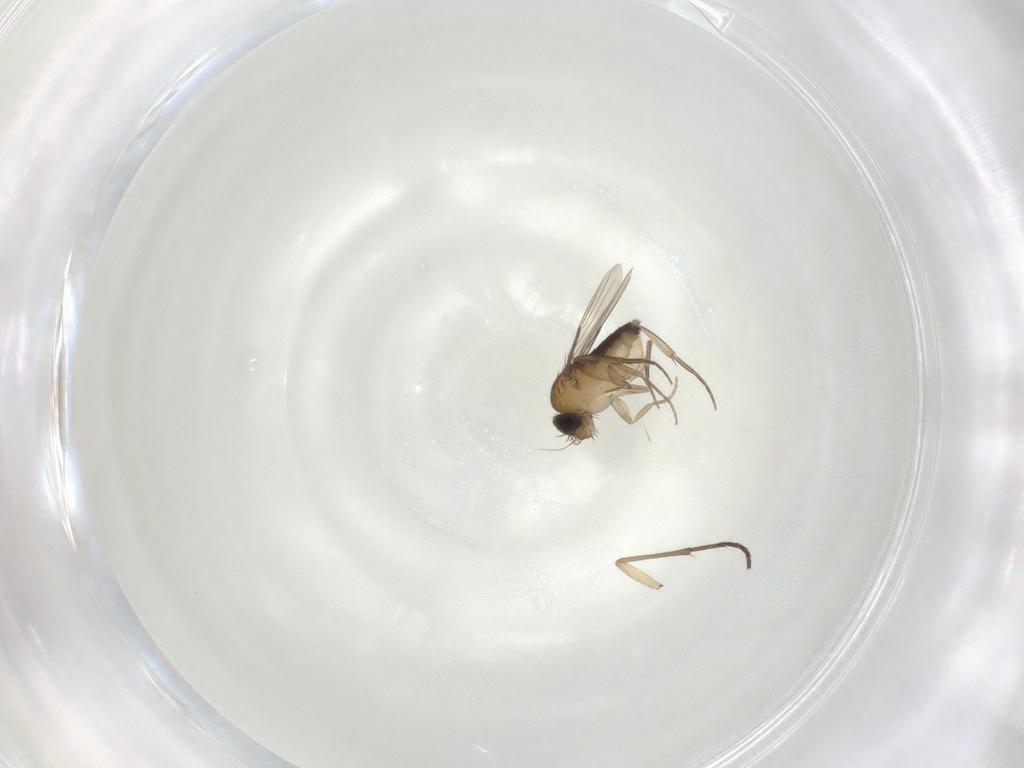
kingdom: Animalia
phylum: Arthropoda
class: Insecta
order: Diptera
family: Phoridae
